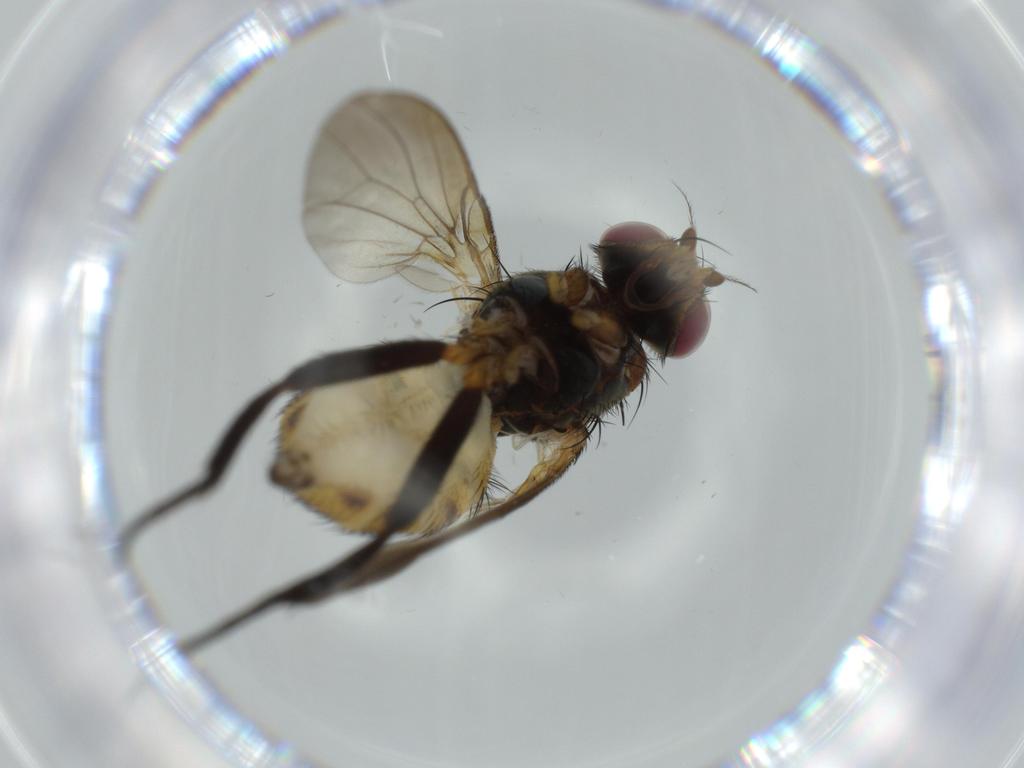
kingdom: Animalia
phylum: Arthropoda
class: Insecta
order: Diptera
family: Anthomyiidae
